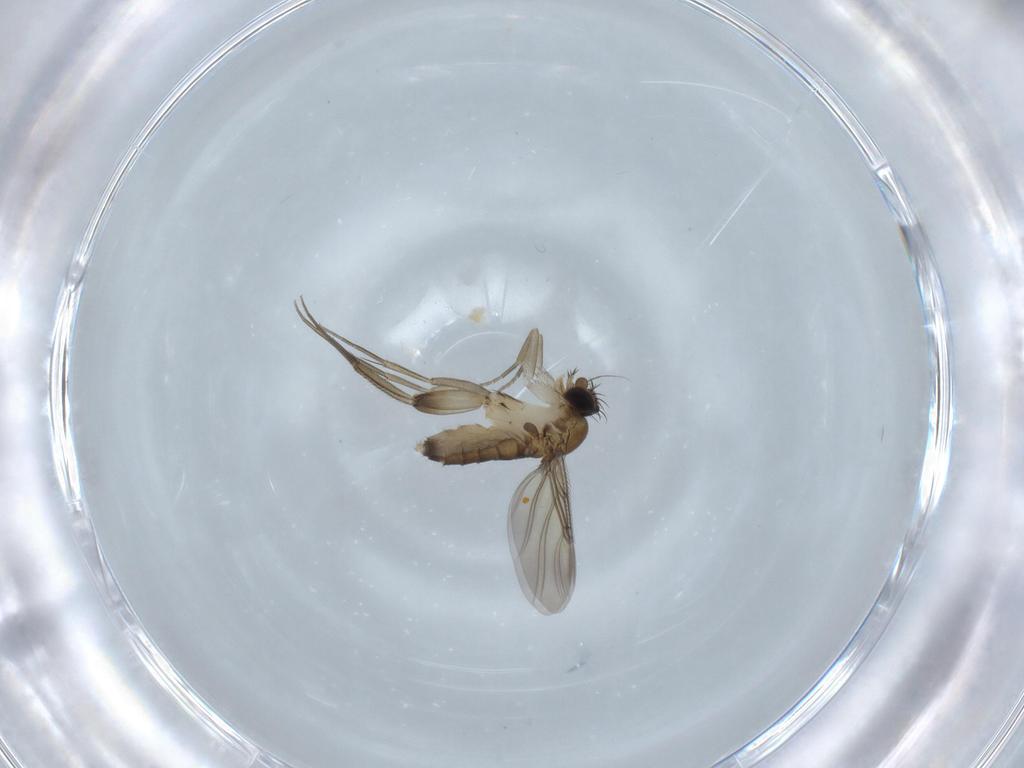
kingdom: Animalia
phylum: Arthropoda
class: Insecta
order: Diptera
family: Phoridae
